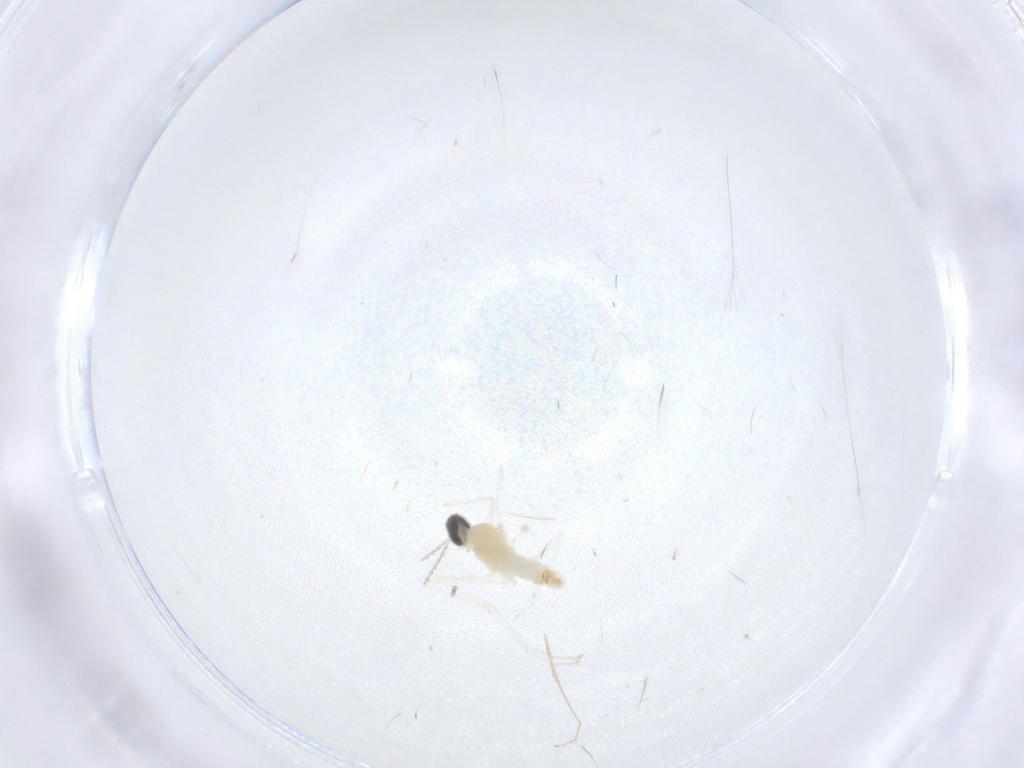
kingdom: Animalia
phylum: Arthropoda
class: Insecta
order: Diptera
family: Cecidomyiidae
